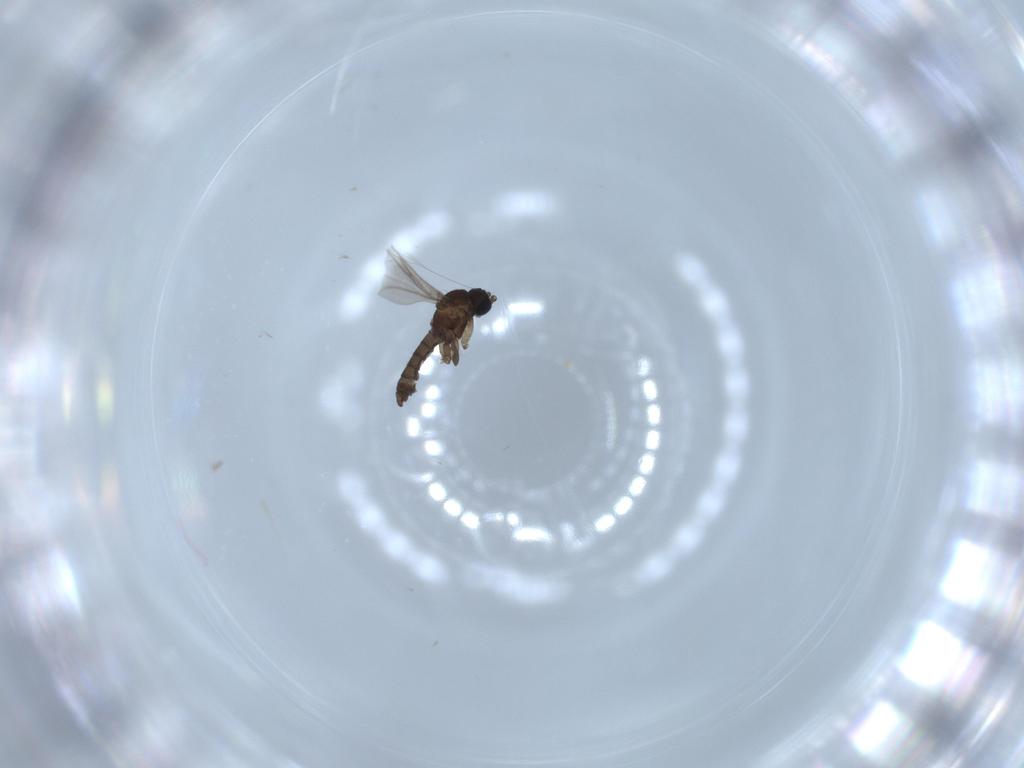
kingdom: Animalia
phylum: Arthropoda
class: Insecta
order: Diptera
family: Sciaridae
